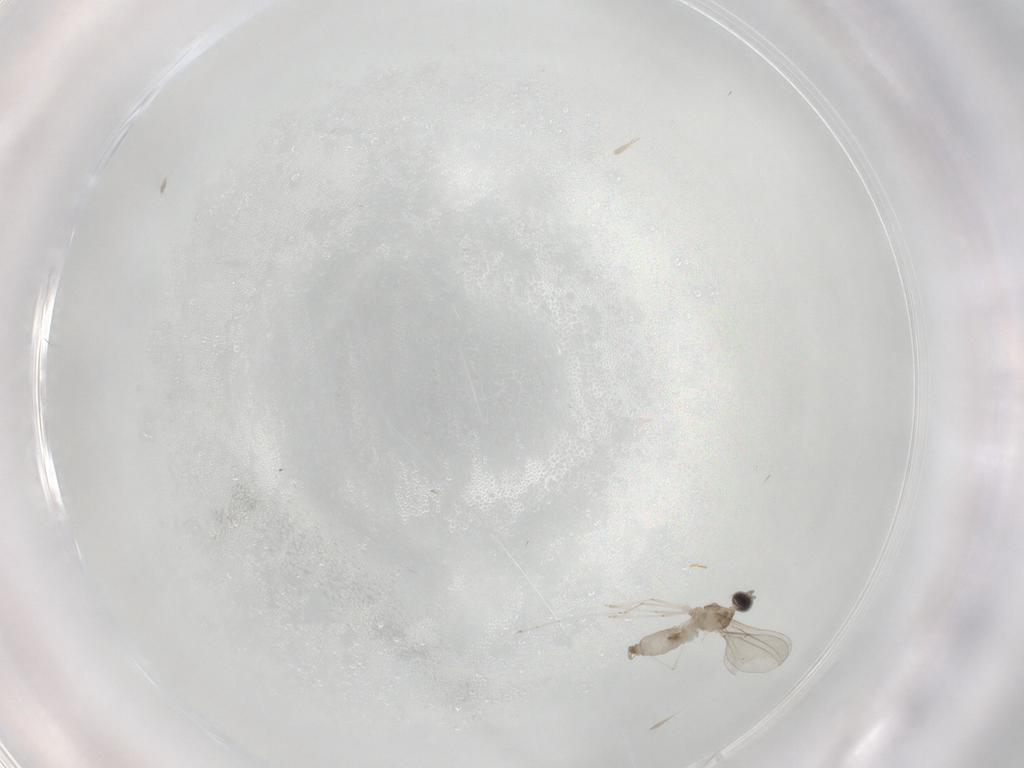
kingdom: Animalia
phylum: Arthropoda
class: Insecta
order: Diptera
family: Cecidomyiidae
